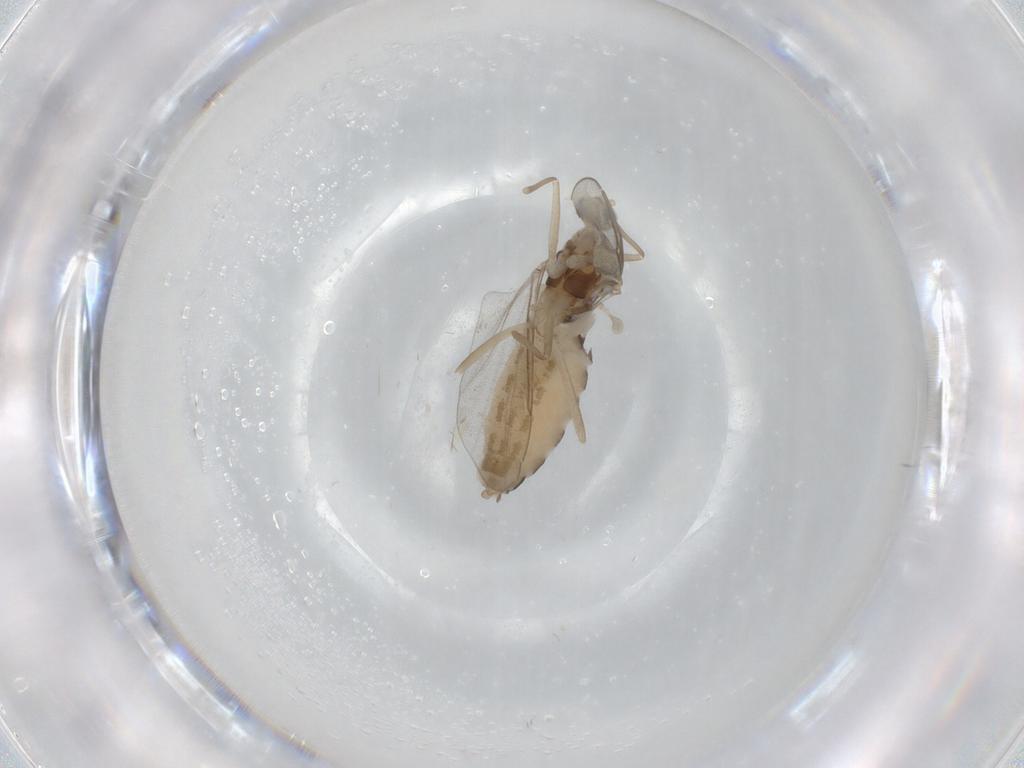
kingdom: Animalia
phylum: Arthropoda
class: Insecta
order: Diptera
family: Cecidomyiidae
